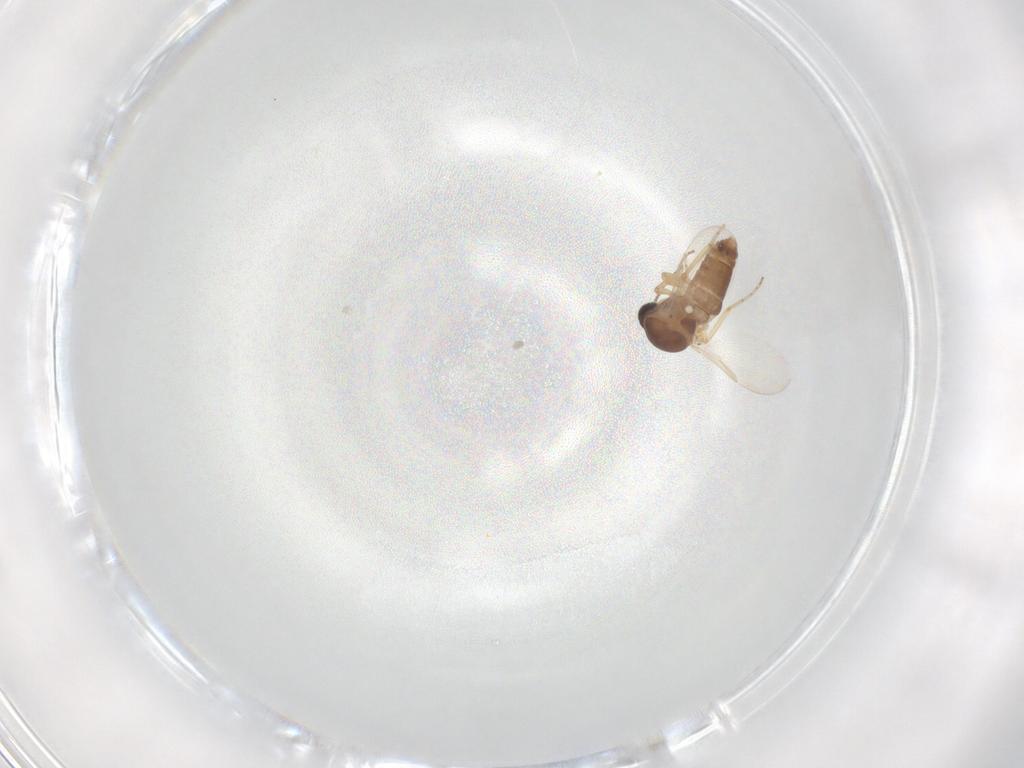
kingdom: Animalia
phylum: Arthropoda
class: Insecta
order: Diptera
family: Ceratopogonidae
